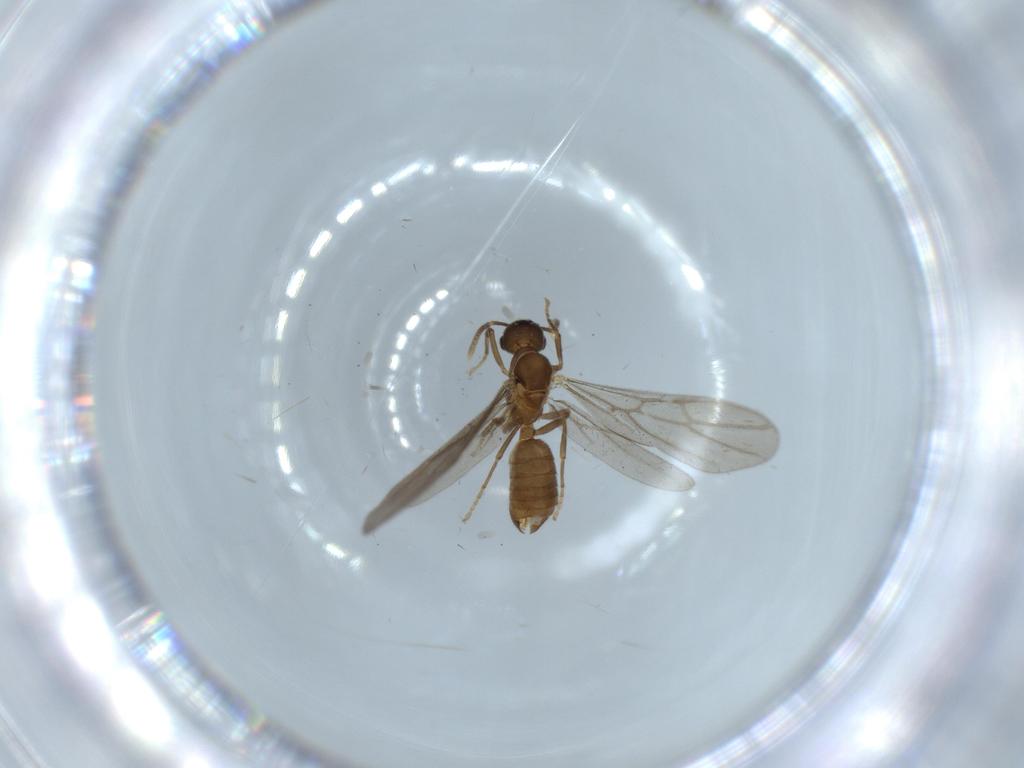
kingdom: Animalia
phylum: Arthropoda
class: Insecta
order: Hymenoptera
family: Formicidae
